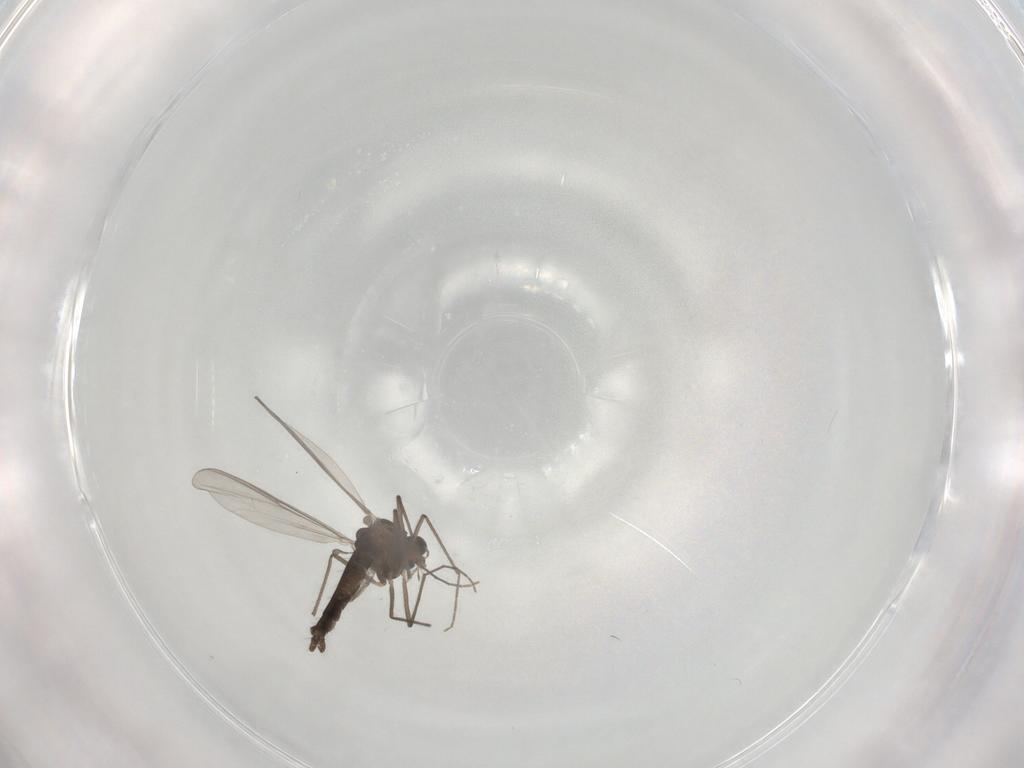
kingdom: Animalia
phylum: Arthropoda
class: Insecta
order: Diptera
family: Chironomidae
